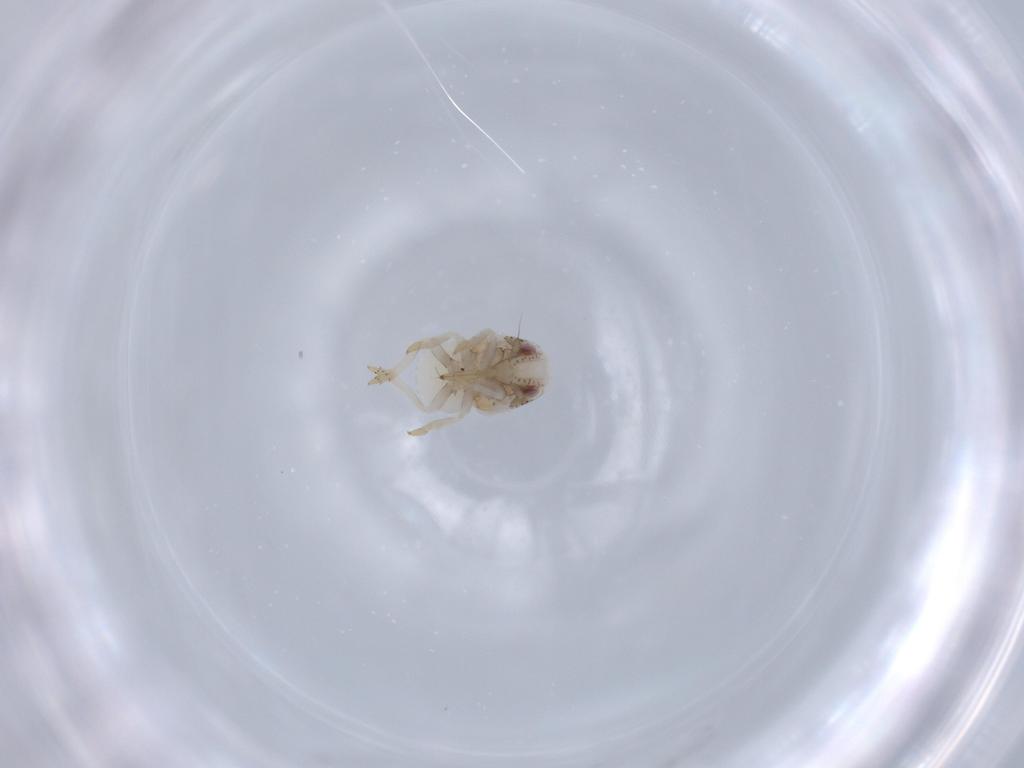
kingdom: Animalia
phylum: Arthropoda
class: Insecta
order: Hemiptera
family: Acanaloniidae
